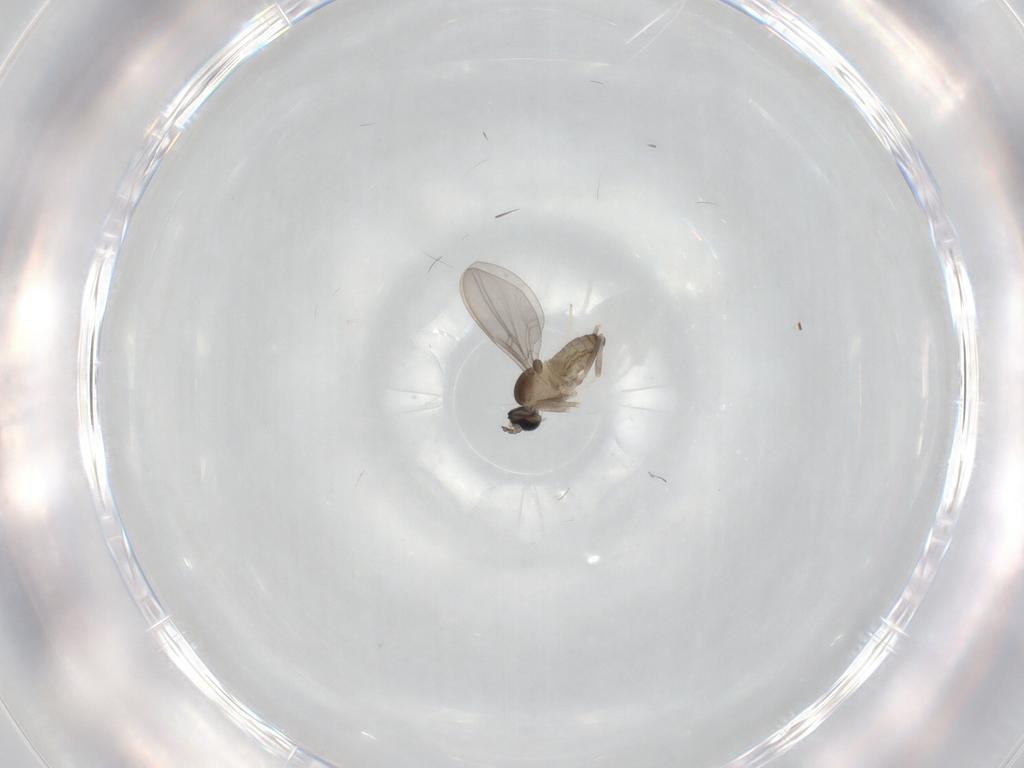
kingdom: Animalia
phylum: Arthropoda
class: Insecta
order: Diptera
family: Cecidomyiidae
